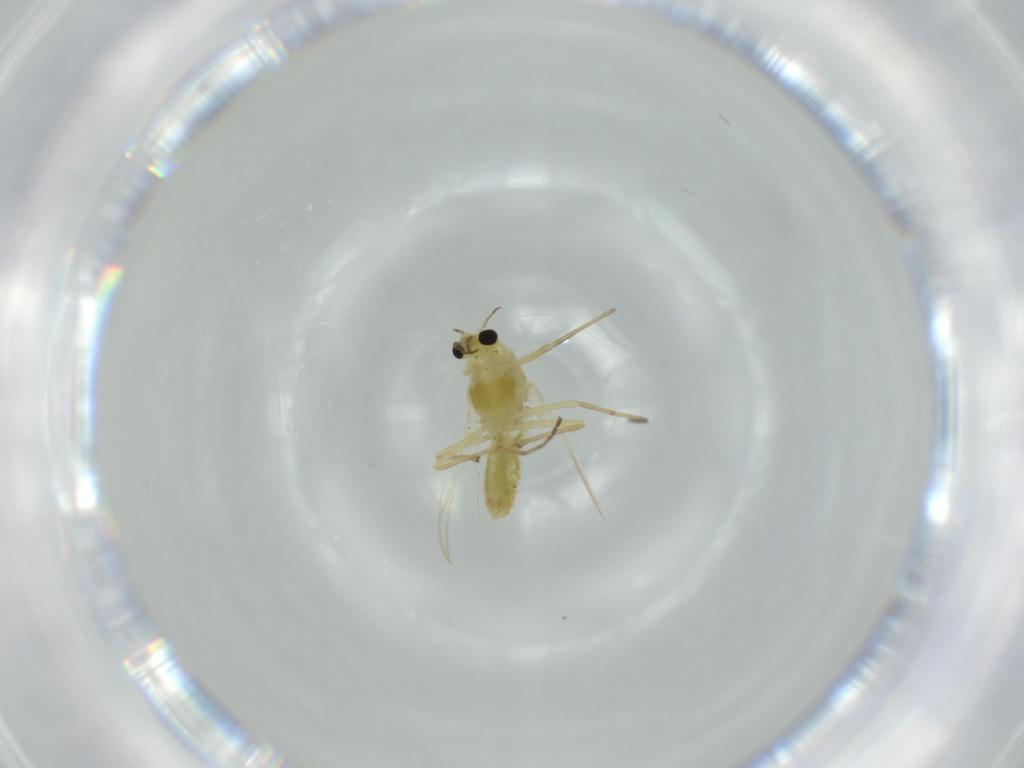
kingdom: Animalia
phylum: Arthropoda
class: Insecta
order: Diptera
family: Chironomidae
